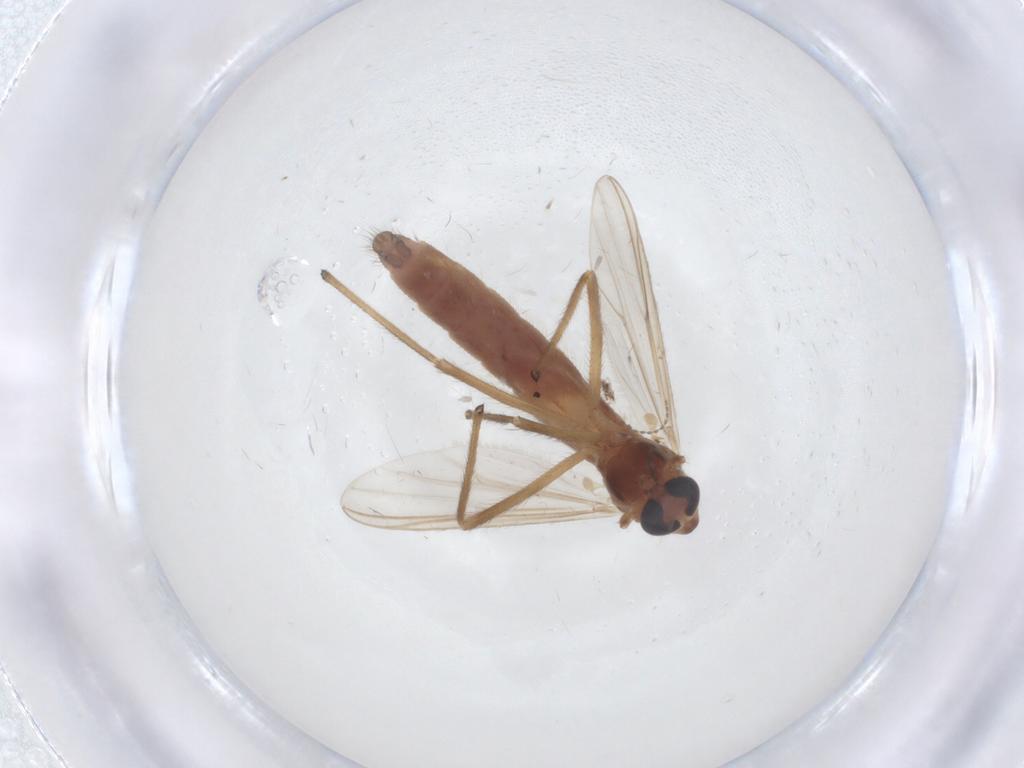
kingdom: Animalia
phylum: Arthropoda
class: Insecta
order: Diptera
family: Chironomidae
